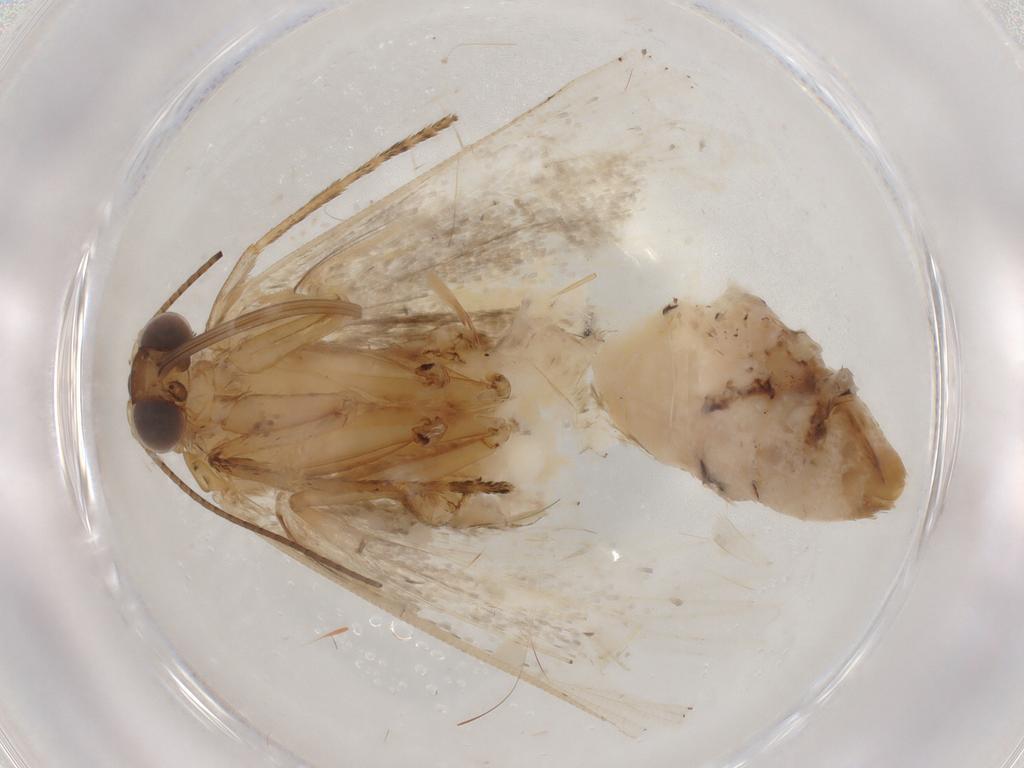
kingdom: Animalia
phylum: Arthropoda
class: Insecta
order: Lepidoptera
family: Erebidae
